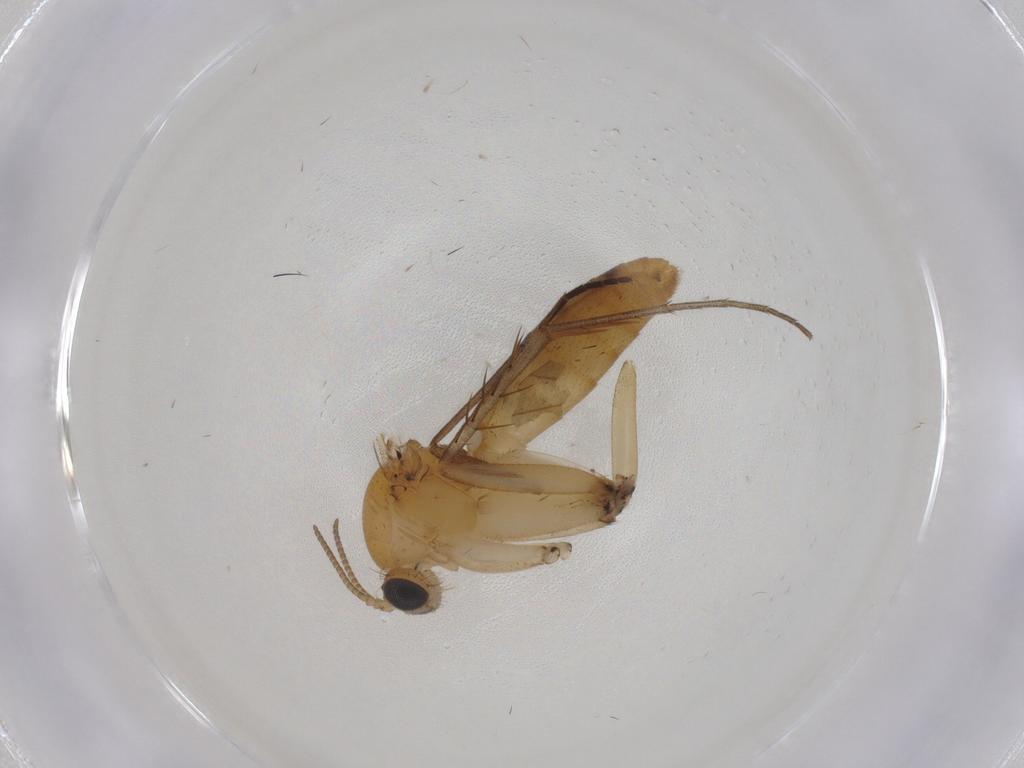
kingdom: Animalia
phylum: Arthropoda
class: Insecta
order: Diptera
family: Mycetophilidae
